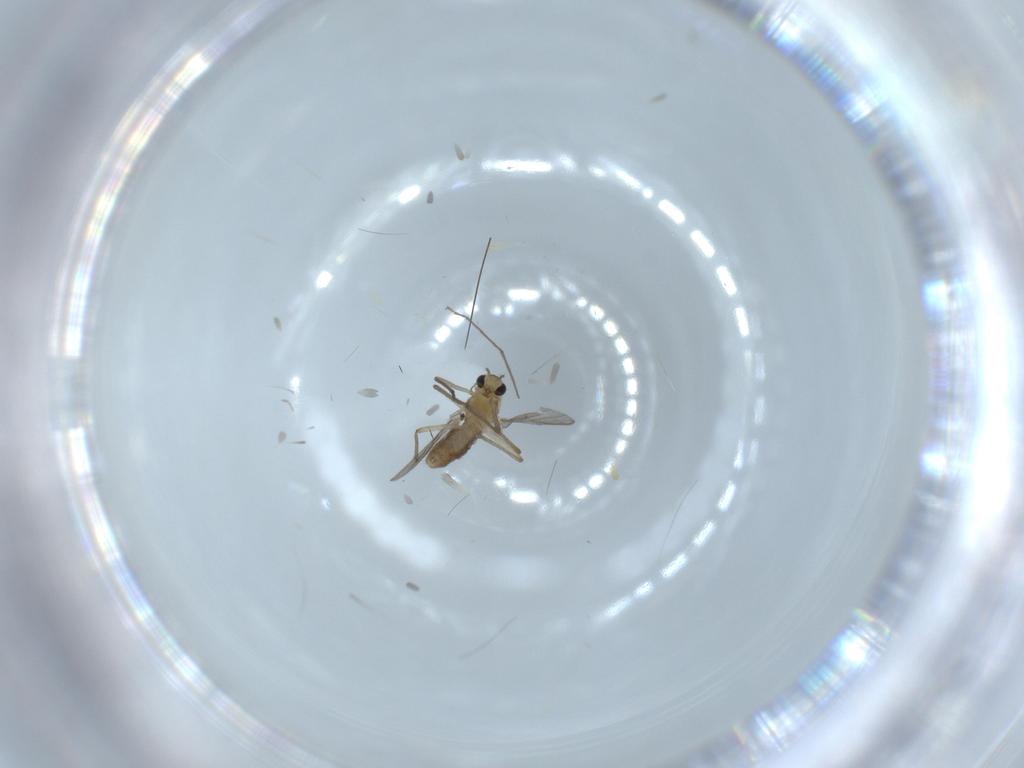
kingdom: Animalia
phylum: Arthropoda
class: Insecta
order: Diptera
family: Chironomidae
